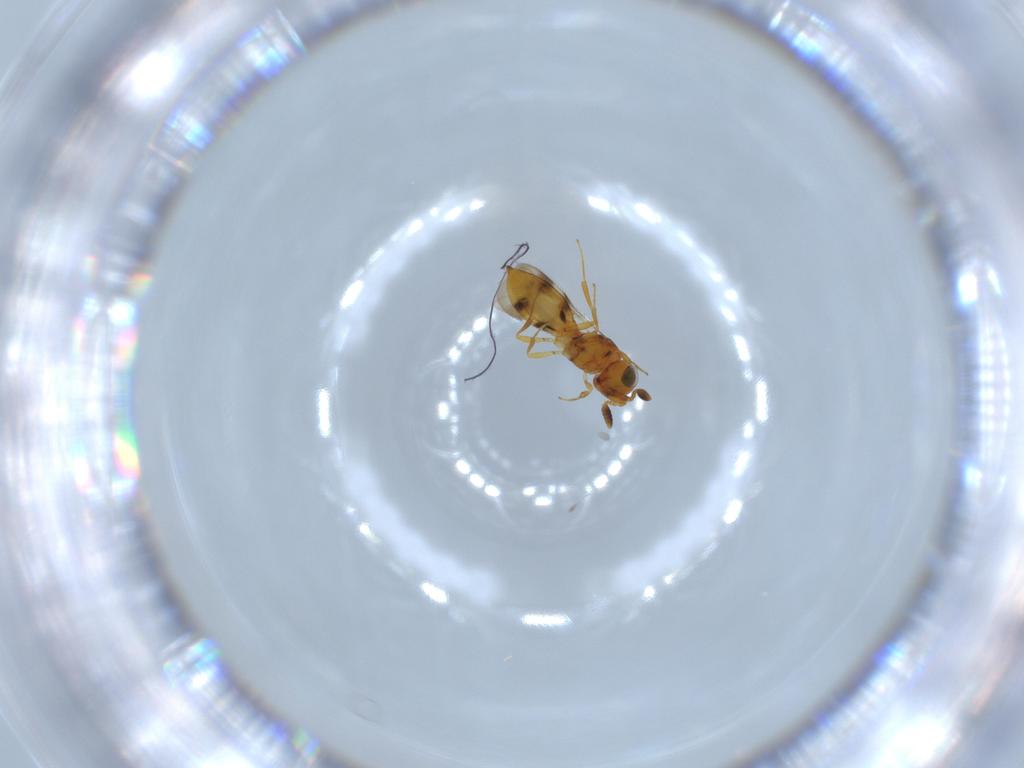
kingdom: Animalia
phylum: Arthropoda
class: Insecta
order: Hymenoptera
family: Scelionidae
